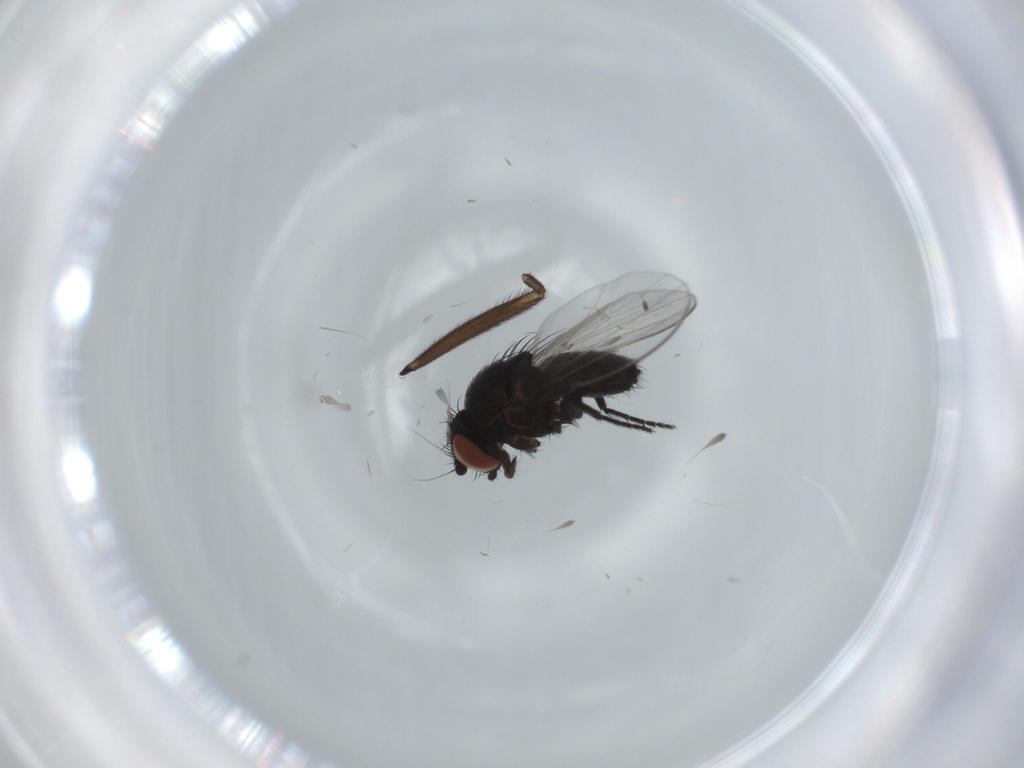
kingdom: Animalia
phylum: Arthropoda
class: Insecta
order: Diptera
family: Milichiidae
